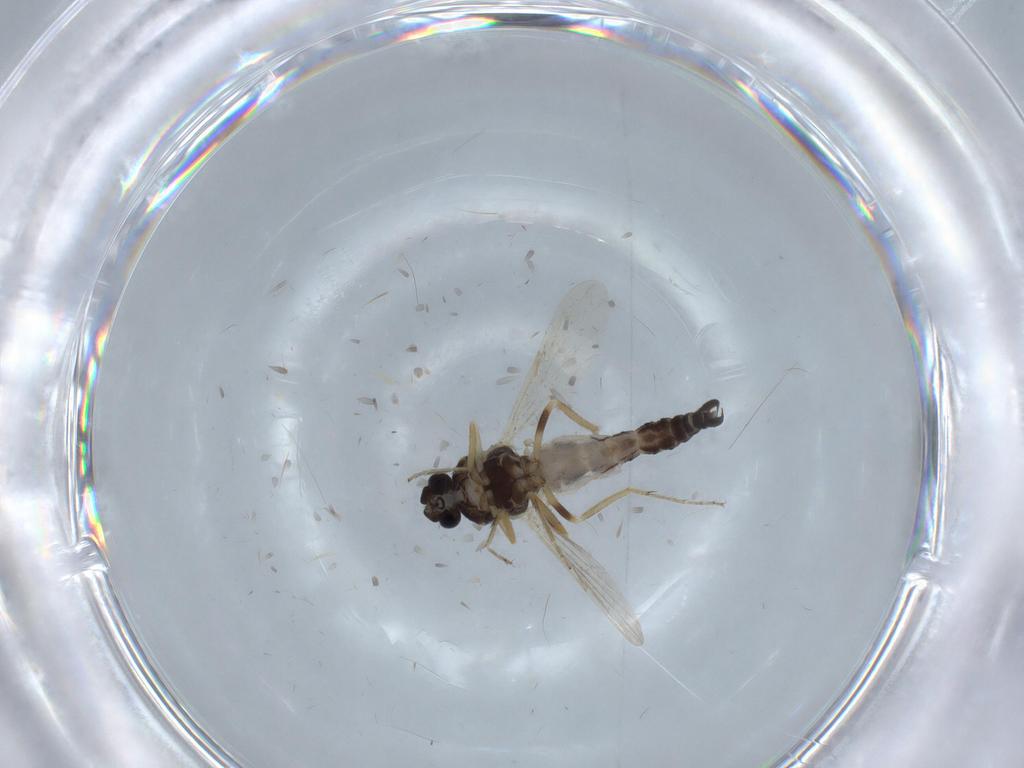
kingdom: Animalia
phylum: Arthropoda
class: Insecta
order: Diptera
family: Ceratopogonidae
